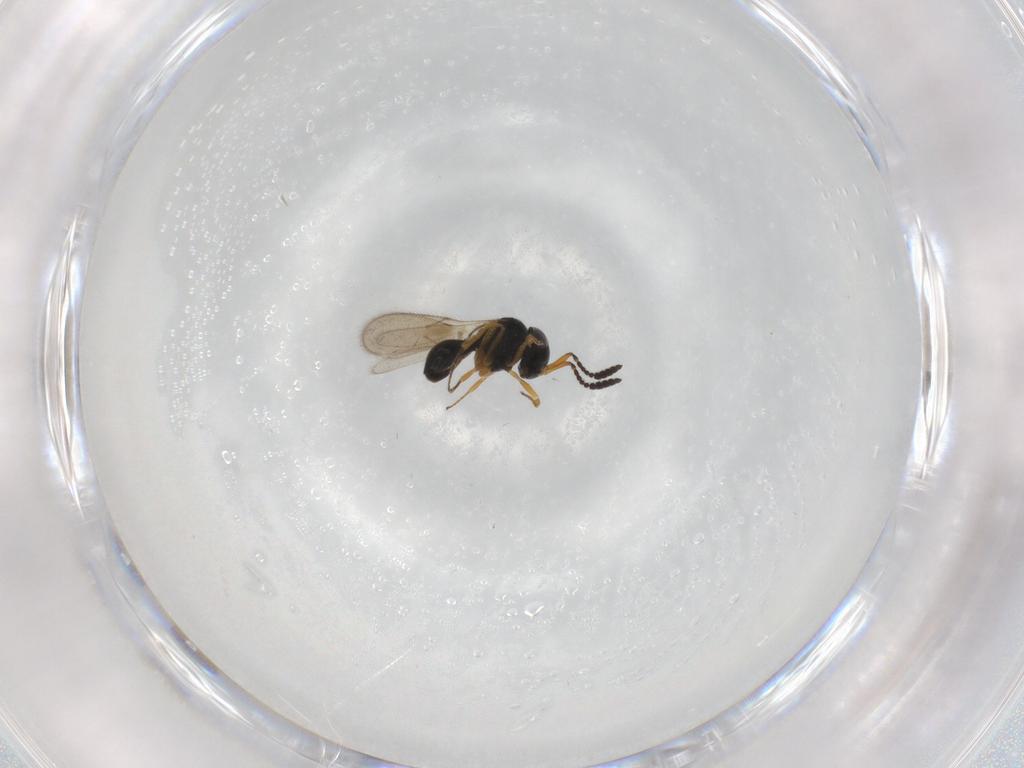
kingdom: Animalia
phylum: Arthropoda
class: Insecta
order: Hymenoptera
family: Scelionidae
